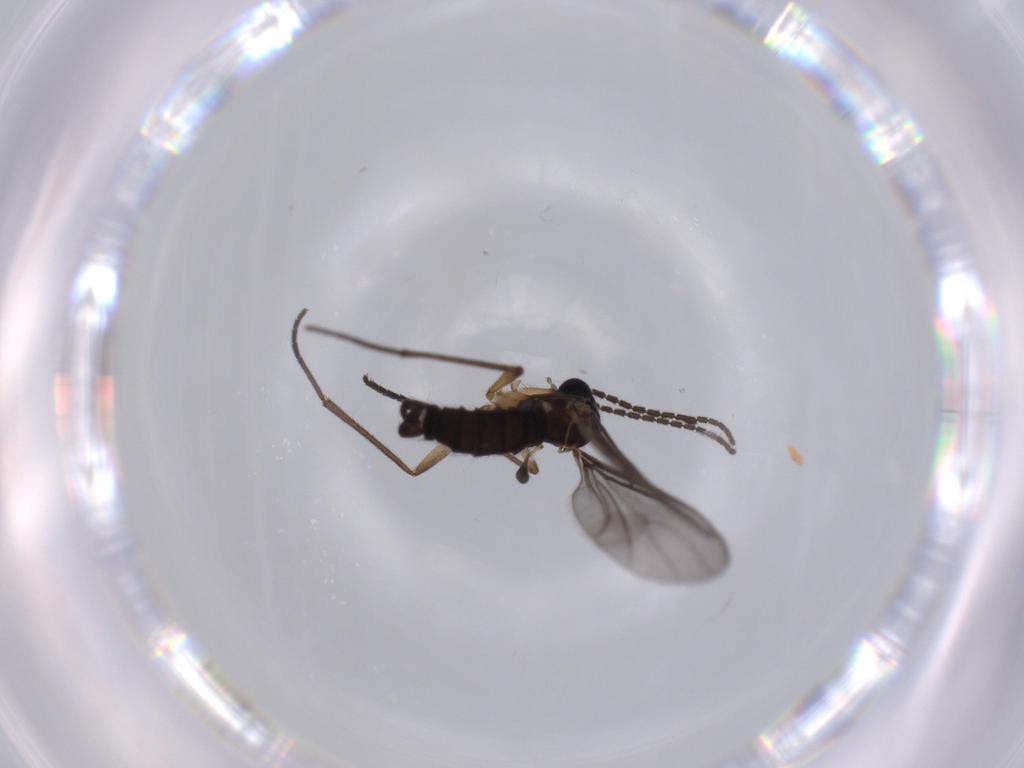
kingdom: Animalia
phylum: Arthropoda
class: Insecta
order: Diptera
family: Sciaridae
